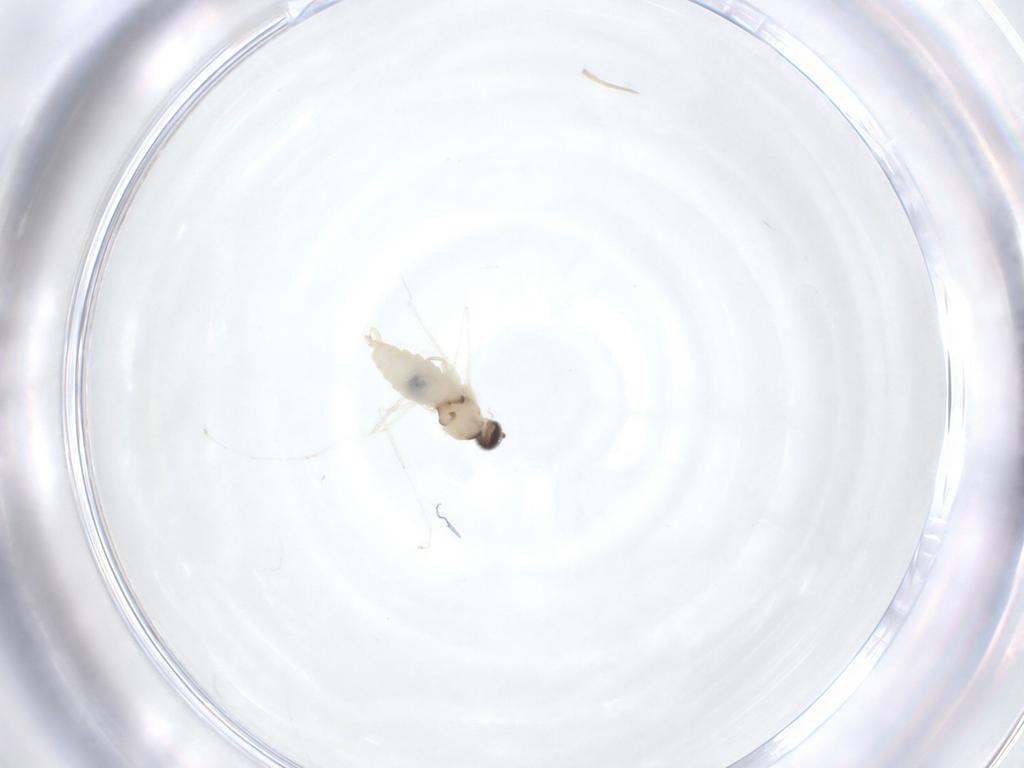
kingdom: Animalia
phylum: Arthropoda
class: Insecta
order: Diptera
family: Cecidomyiidae
